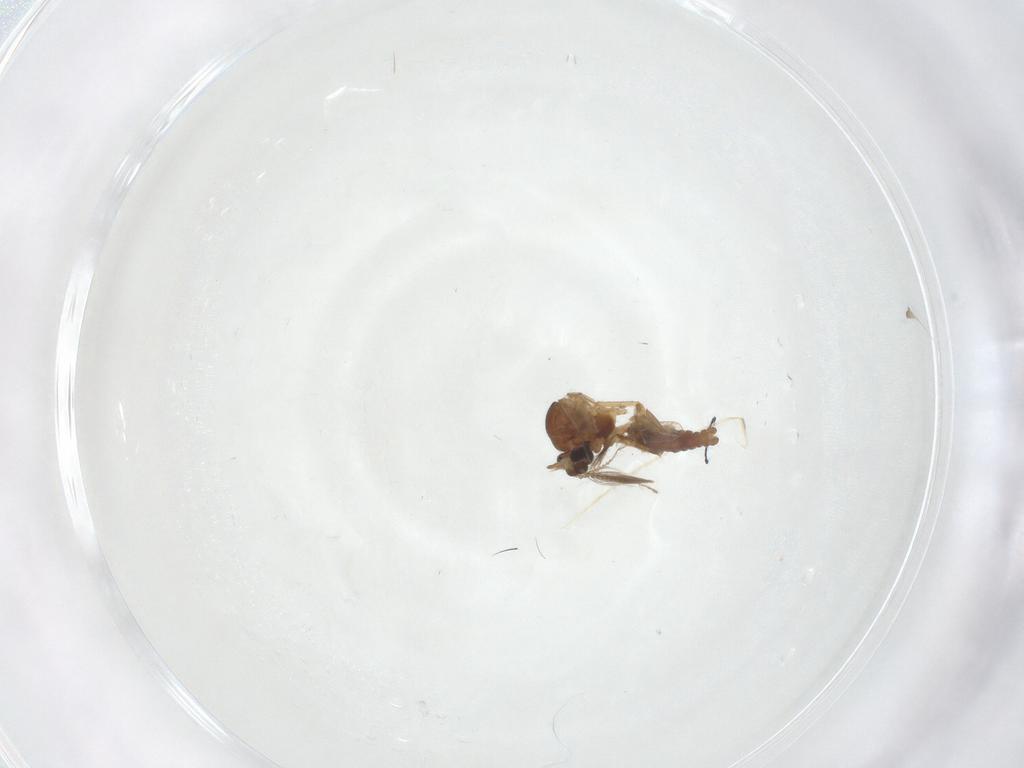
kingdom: Animalia
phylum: Arthropoda
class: Insecta
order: Diptera
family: Ceratopogonidae
